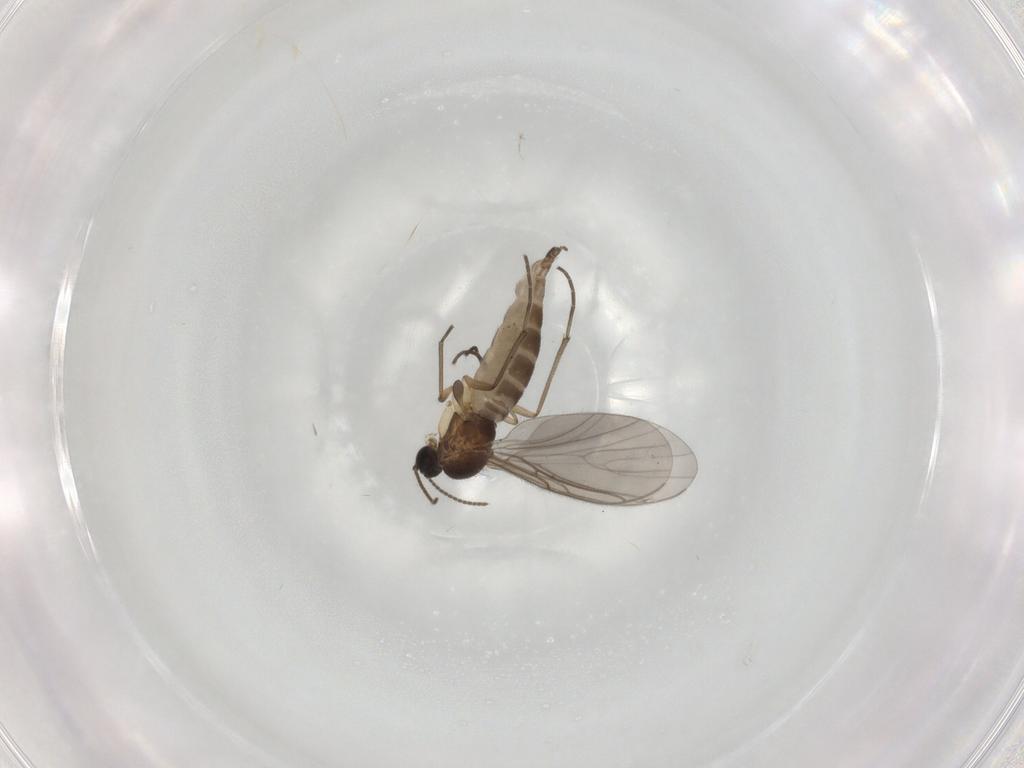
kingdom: Animalia
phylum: Arthropoda
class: Insecta
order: Diptera
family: Sciaridae
